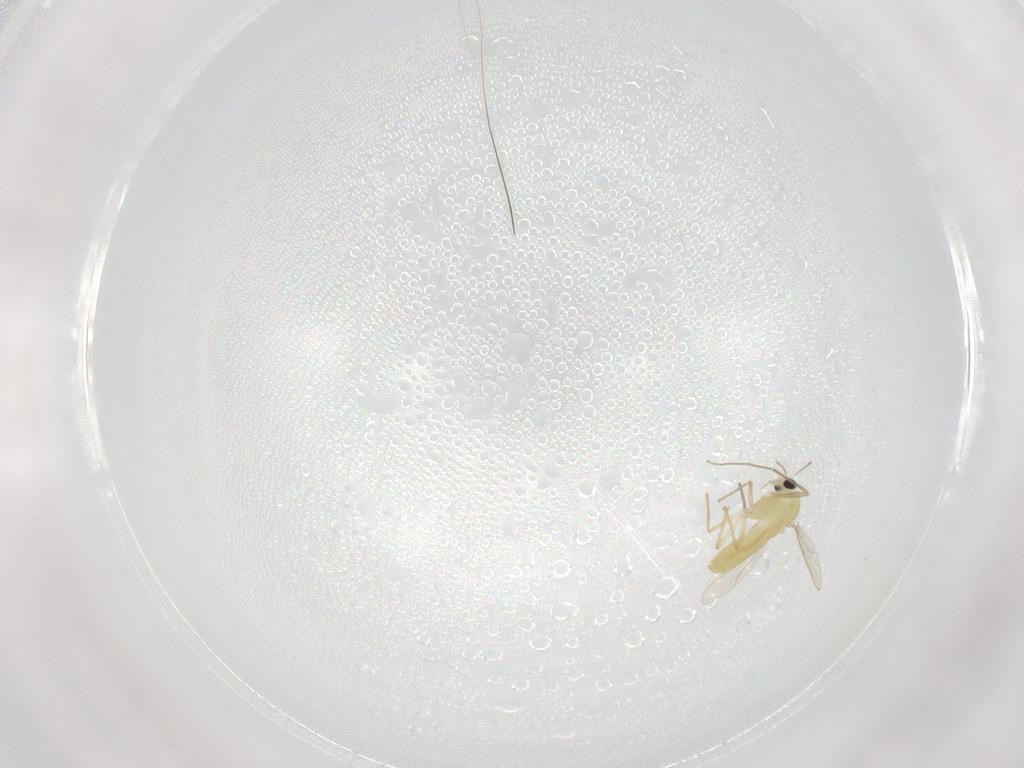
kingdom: Animalia
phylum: Arthropoda
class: Insecta
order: Diptera
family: Chironomidae
